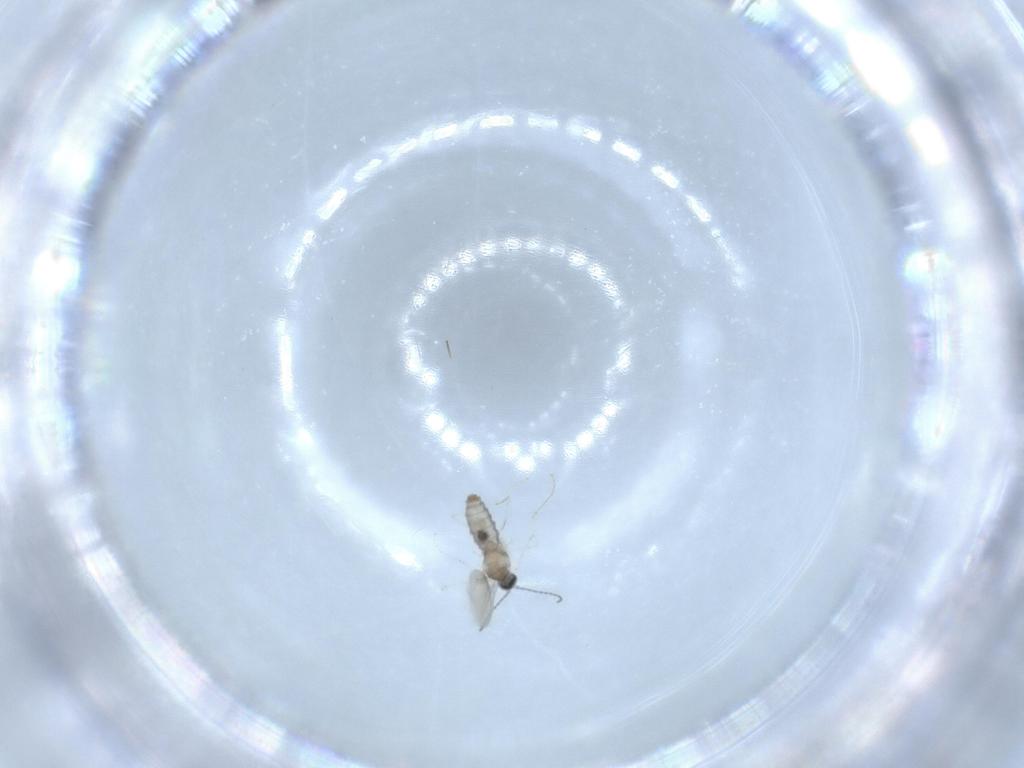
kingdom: Animalia
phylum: Arthropoda
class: Insecta
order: Diptera
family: Cecidomyiidae
